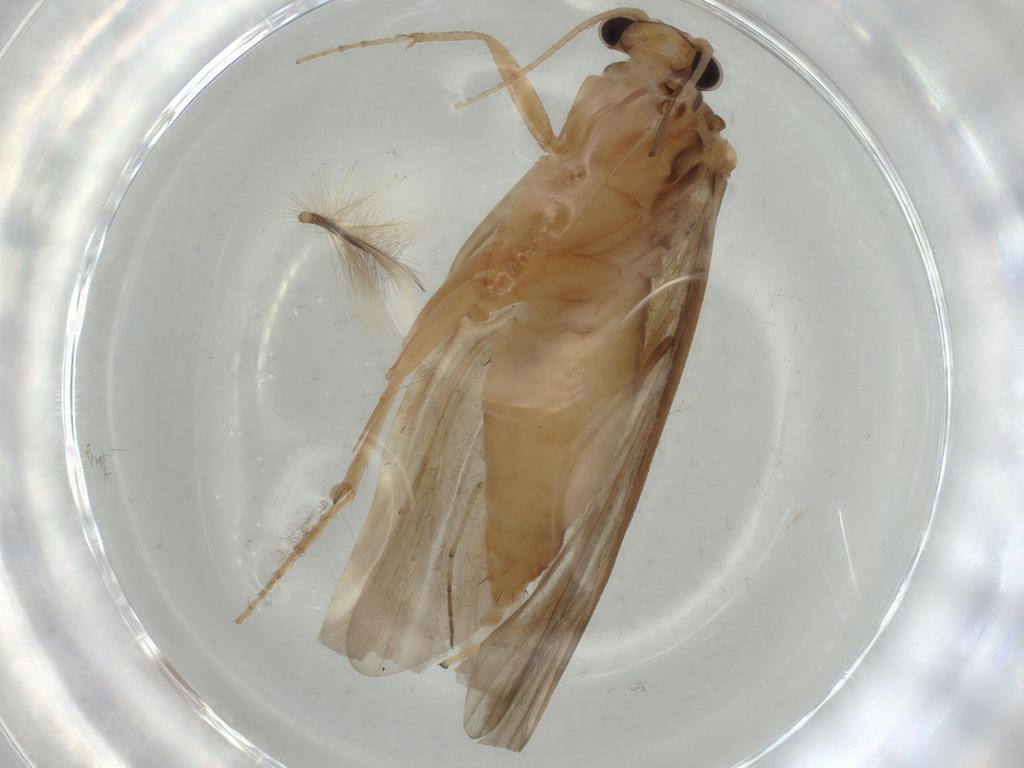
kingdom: Animalia
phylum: Arthropoda
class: Insecta
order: Trichoptera
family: Ecnomidae
